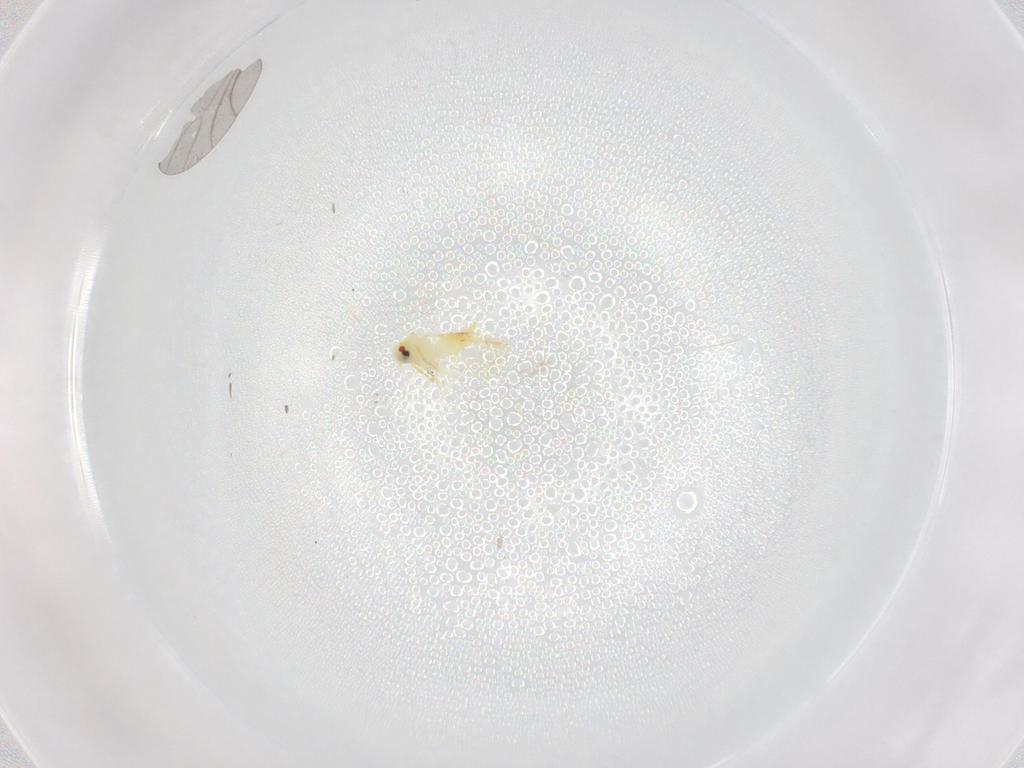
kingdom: Animalia
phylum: Arthropoda
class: Insecta
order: Hemiptera
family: Aleyrodidae
